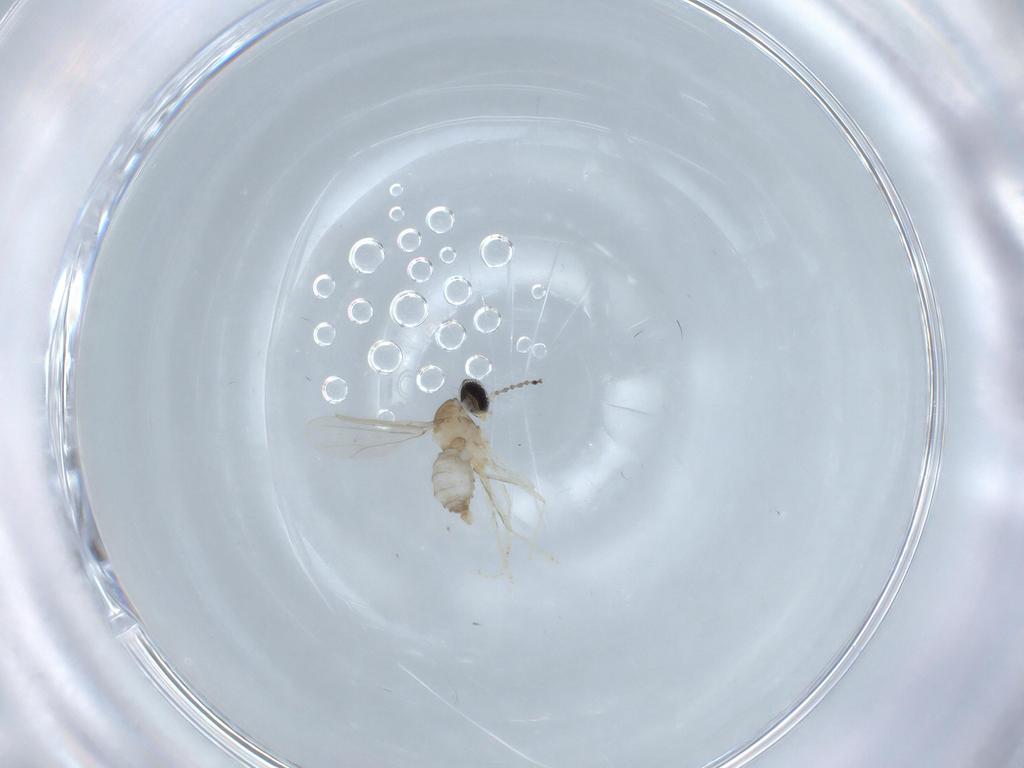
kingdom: Animalia
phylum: Arthropoda
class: Insecta
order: Diptera
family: Cecidomyiidae
